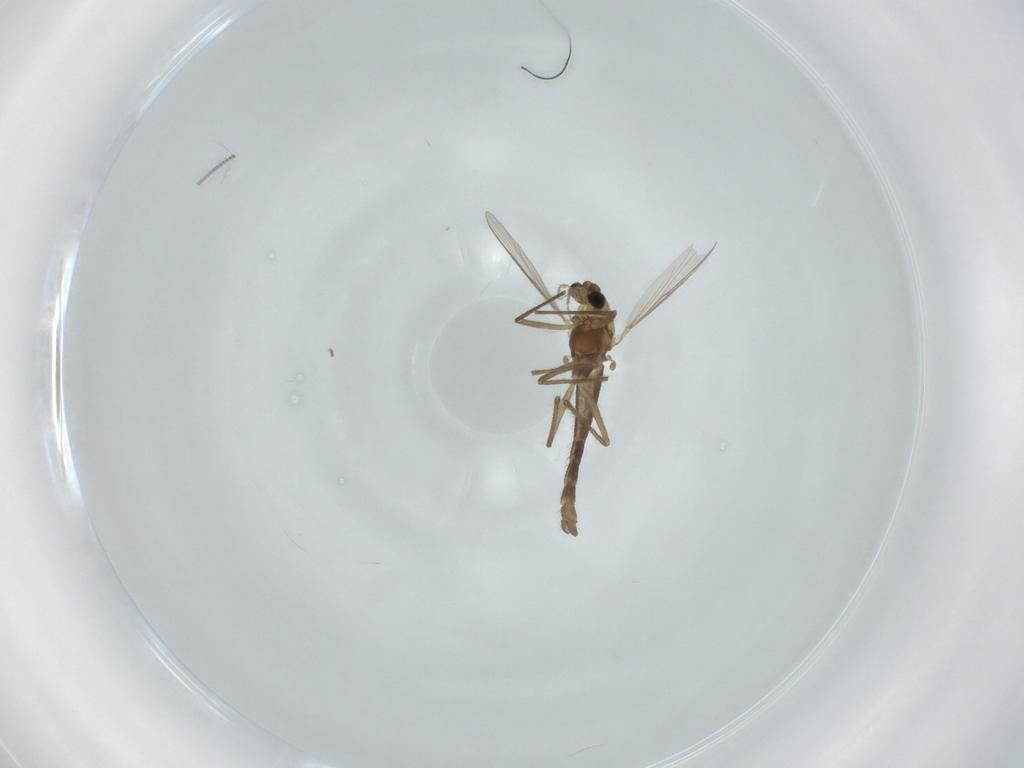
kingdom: Animalia
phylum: Arthropoda
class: Insecta
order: Diptera
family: Chironomidae
